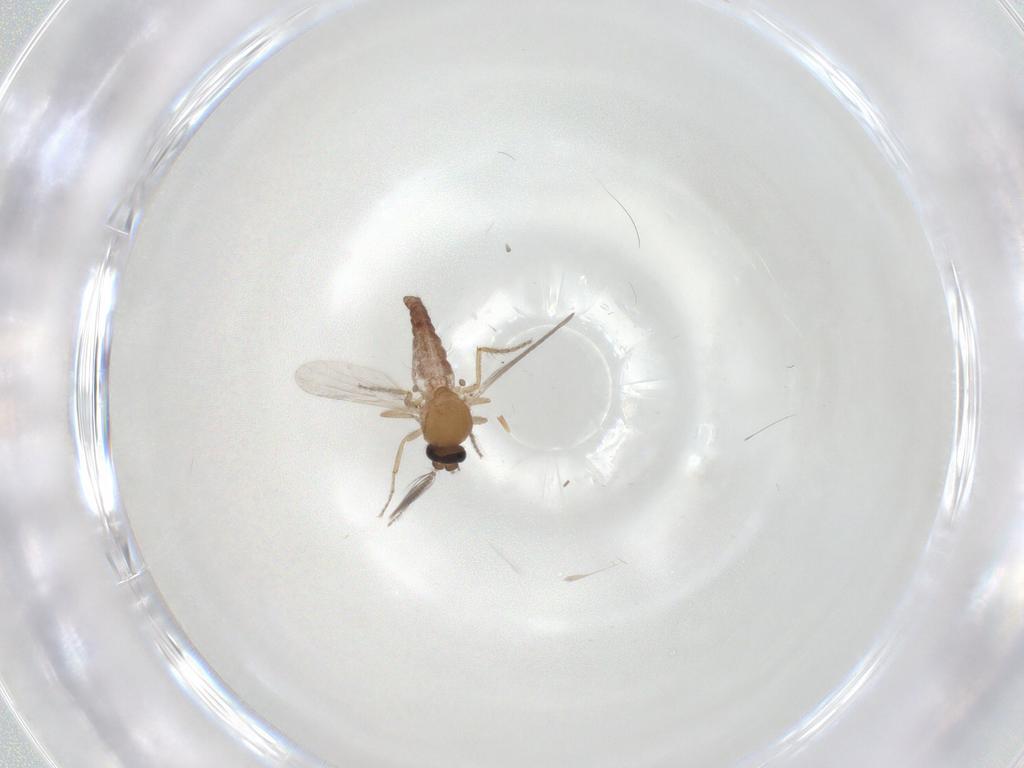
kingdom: Animalia
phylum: Arthropoda
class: Insecta
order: Diptera
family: Ceratopogonidae
